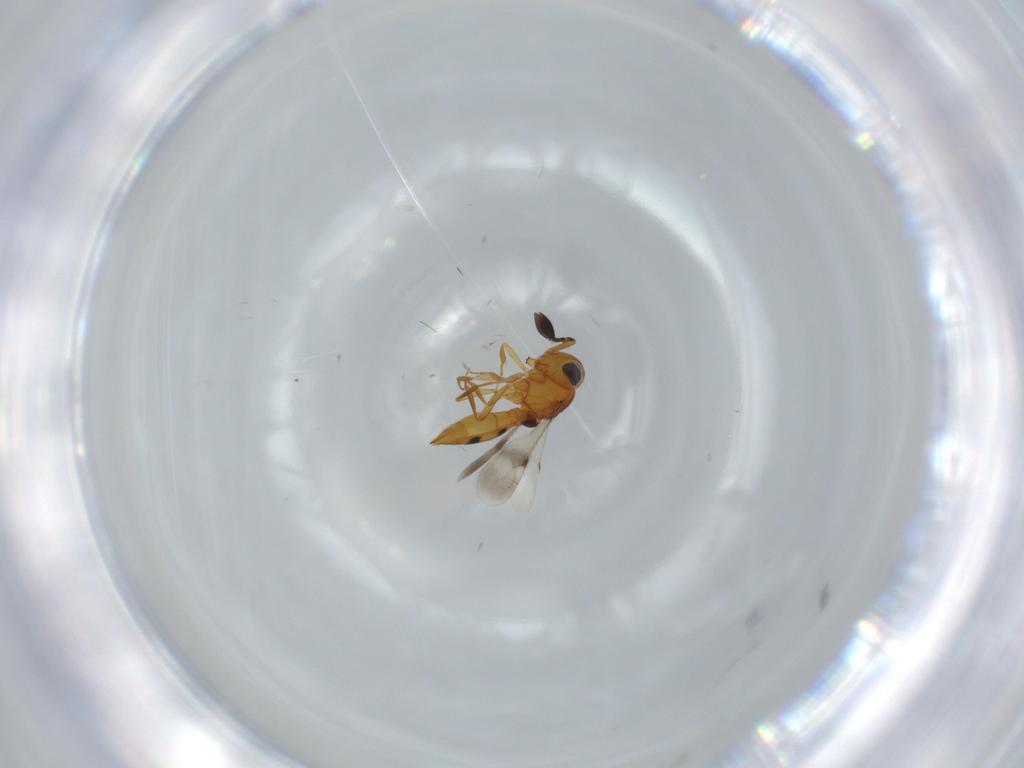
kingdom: Animalia
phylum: Arthropoda
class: Insecta
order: Hymenoptera
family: Scelionidae
